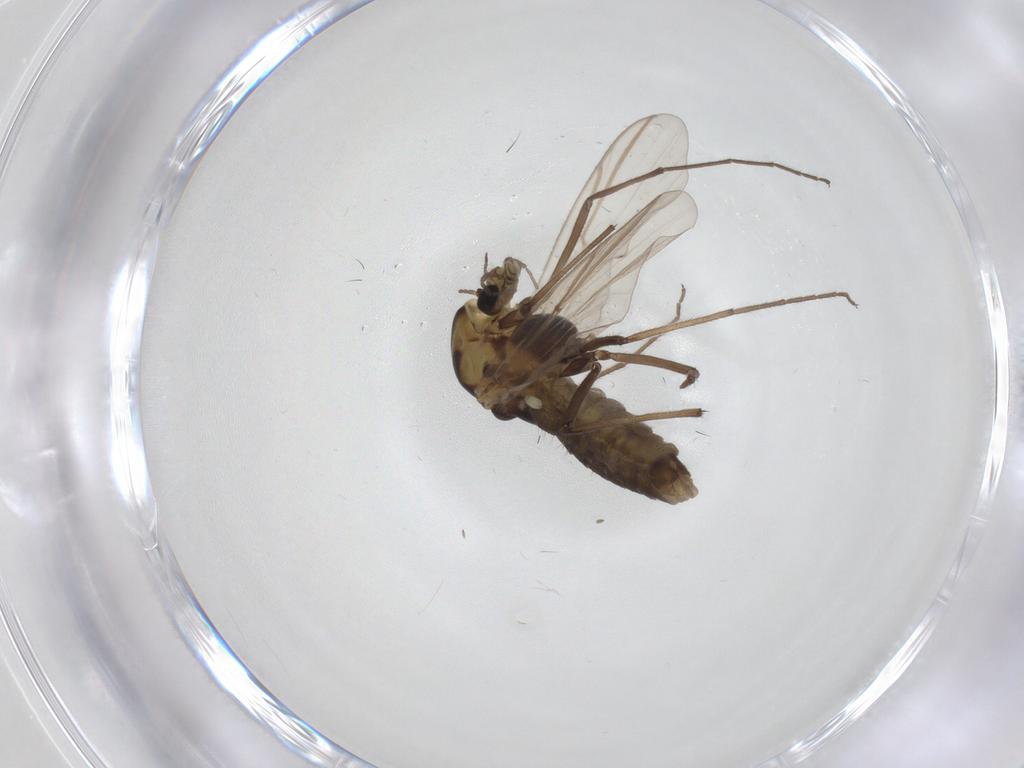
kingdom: Animalia
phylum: Arthropoda
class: Insecta
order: Diptera
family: Chironomidae
